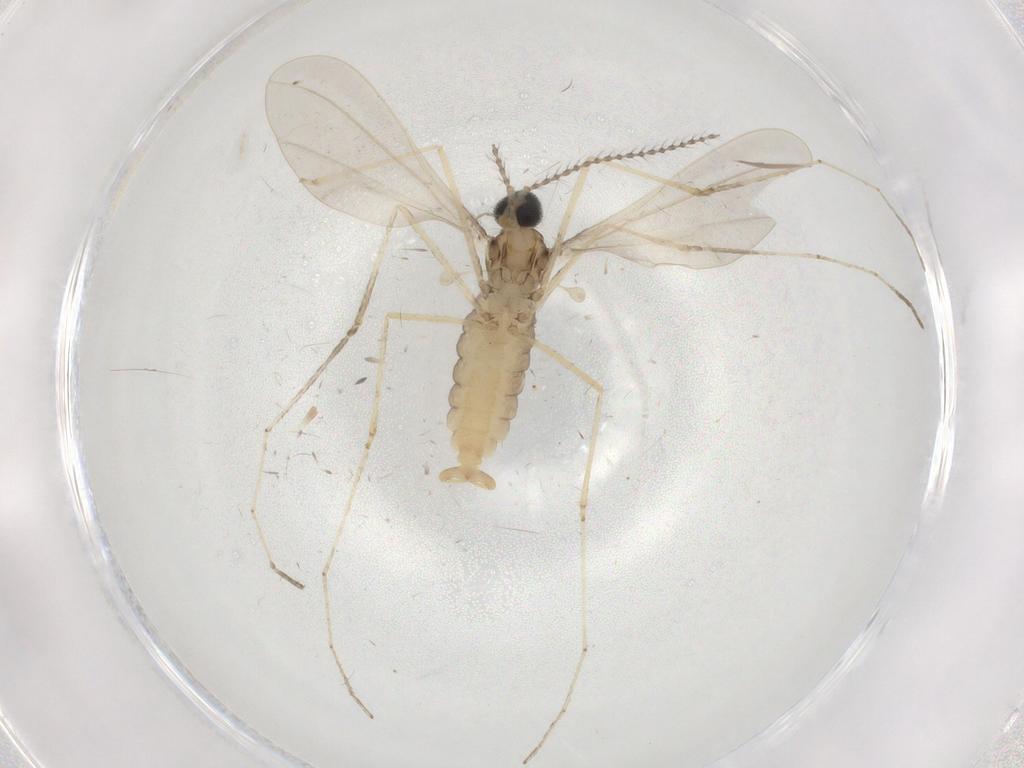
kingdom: Animalia
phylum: Arthropoda
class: Insecta
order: Diptera
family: Cecidomyiidae
